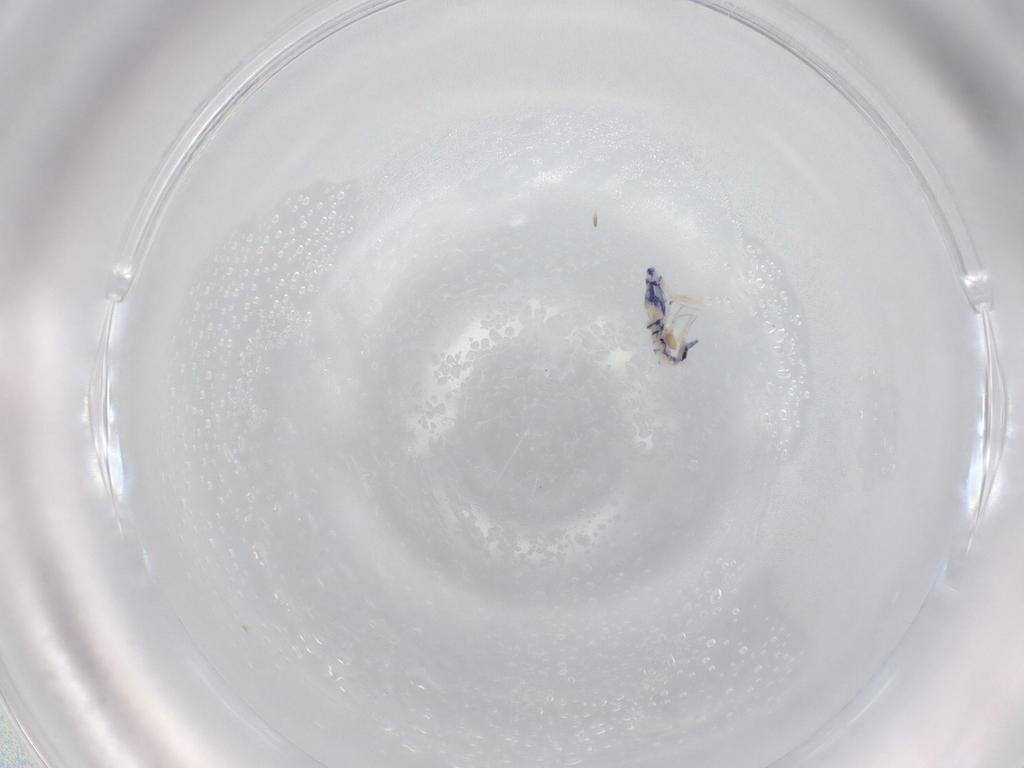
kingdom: Animalia
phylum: Arthropoda
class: Collembola
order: Entomobryomorpha
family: Entomobryidae
